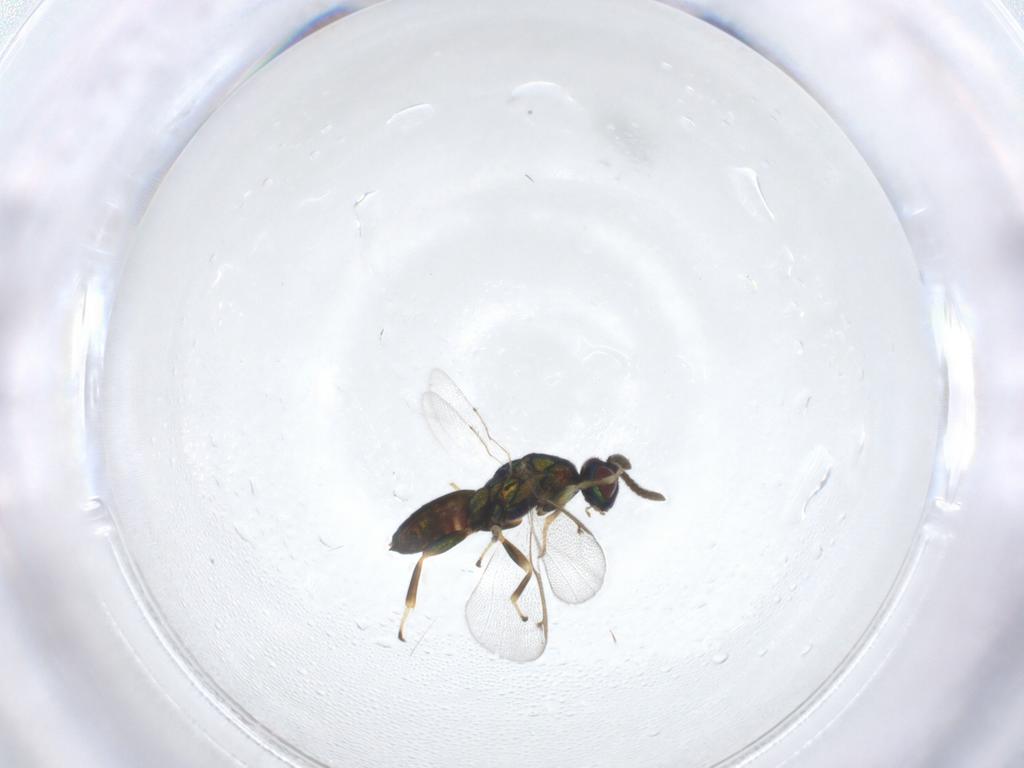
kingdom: Animalia
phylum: Arthropoda
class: Insecta
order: Hymenoptera
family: Torymidae
